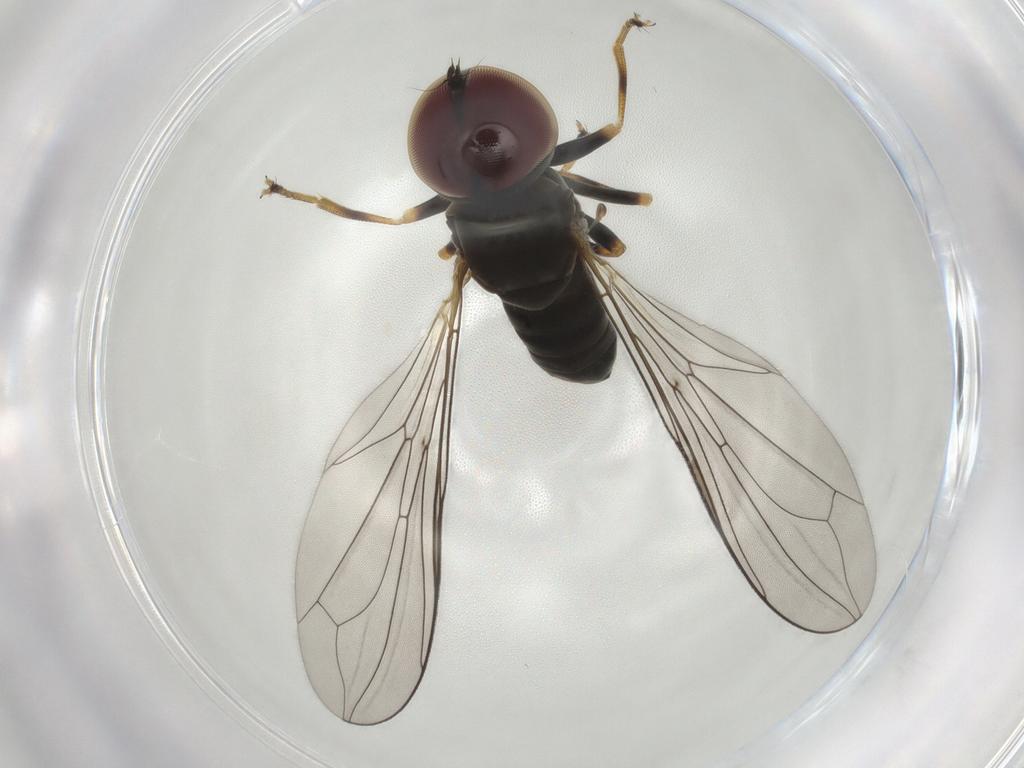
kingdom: Animalia
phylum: Arthropoda
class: Insecta
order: Diptera
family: Pipunculidae
